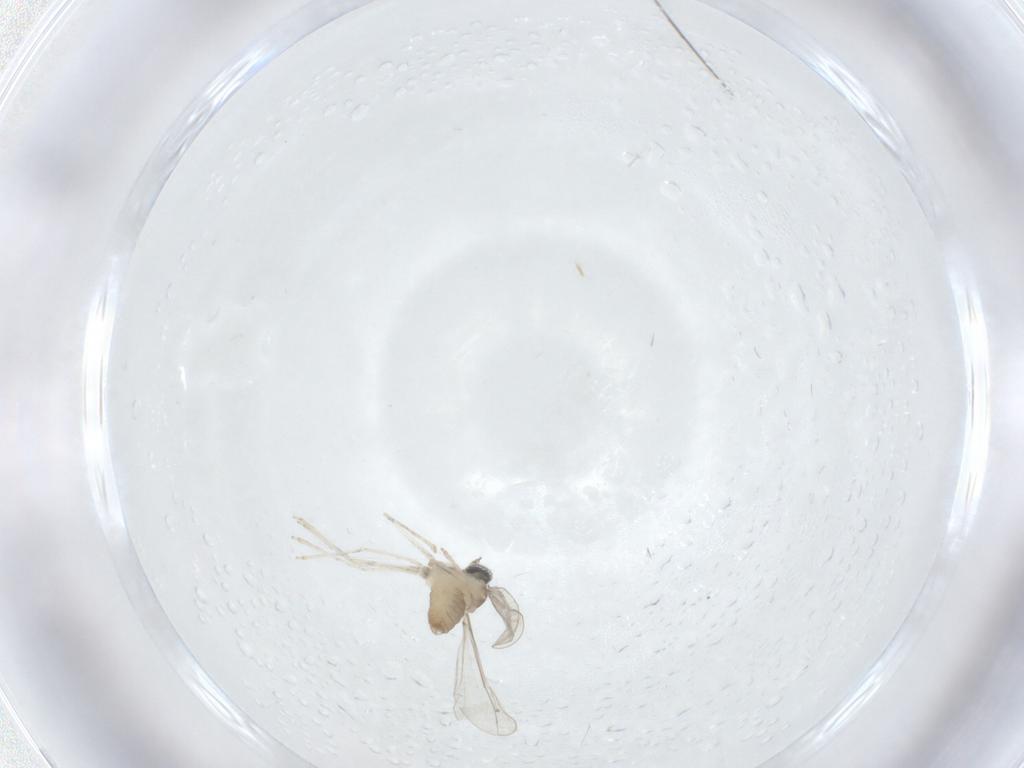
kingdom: Animalia
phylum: Arthropoda
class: Insecta
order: Diptera
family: Cecidomyiidae
